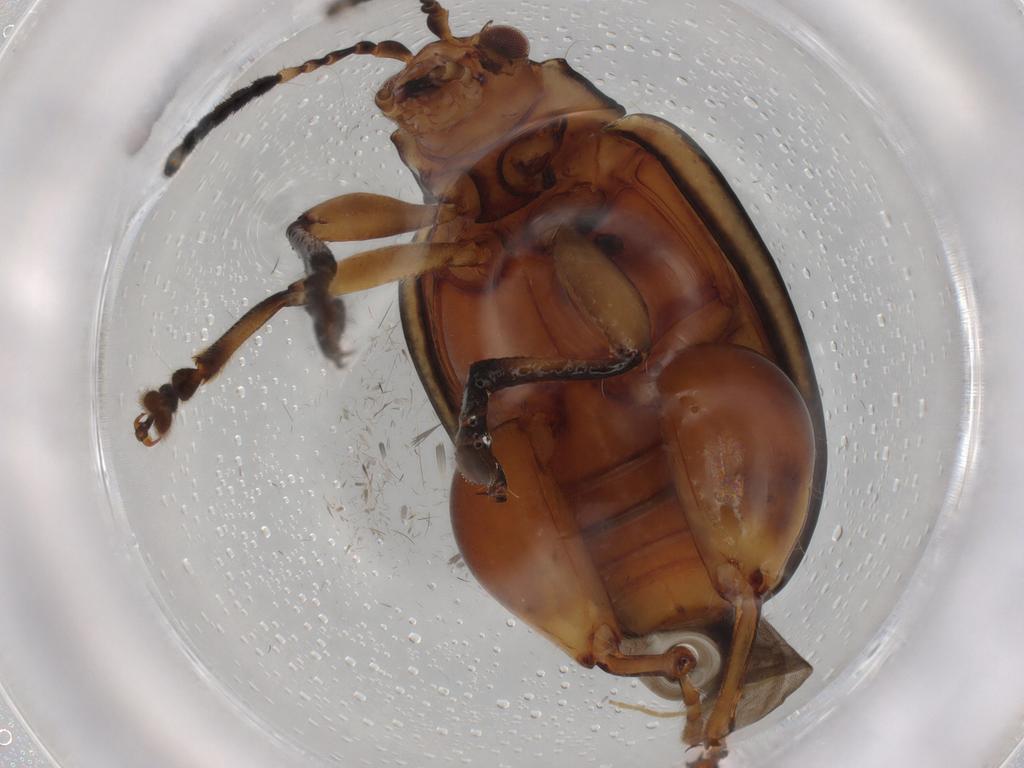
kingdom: Animalia
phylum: Arthropoda
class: Insecta
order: Coleoptera
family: Chrysomelidae
